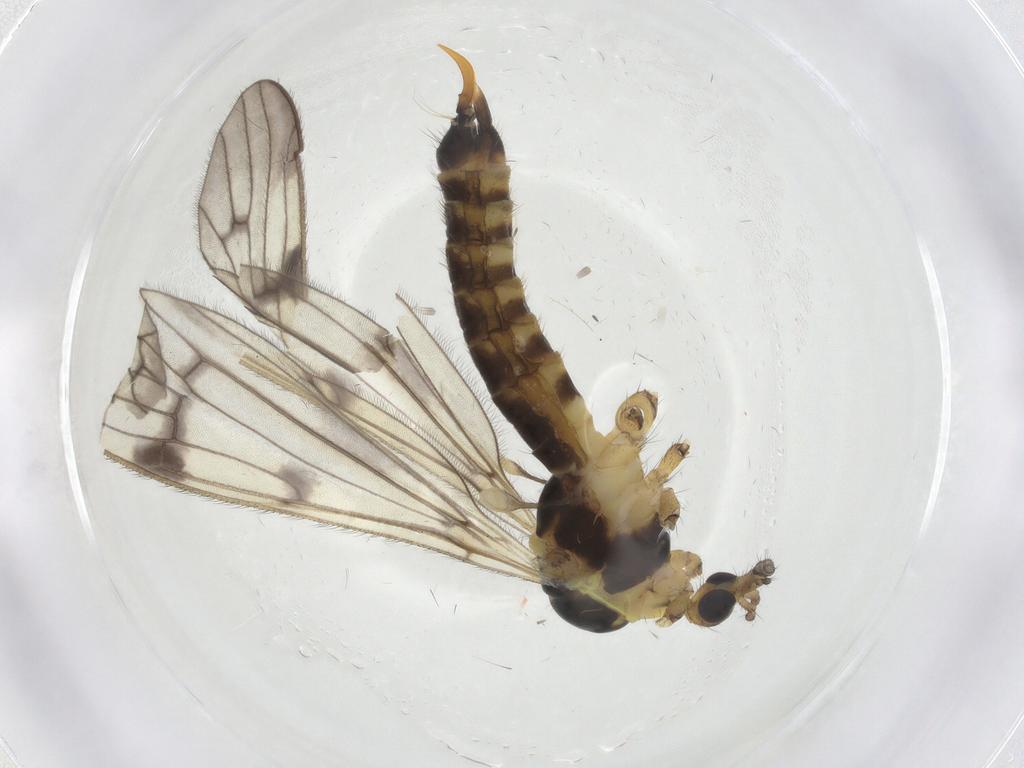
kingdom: Animalia
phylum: Arthropoda
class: Insecta
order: Diptera
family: Limoniidae
